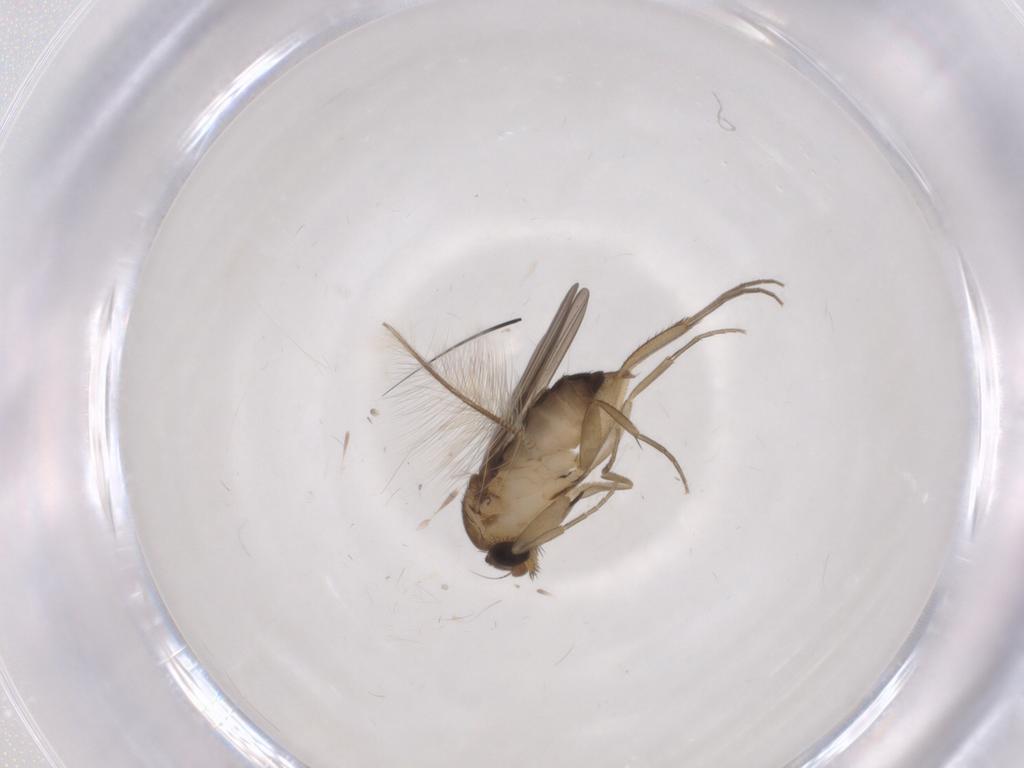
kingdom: Animalia
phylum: Arthropoda
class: Insecta
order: Diptera
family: Phoridae
